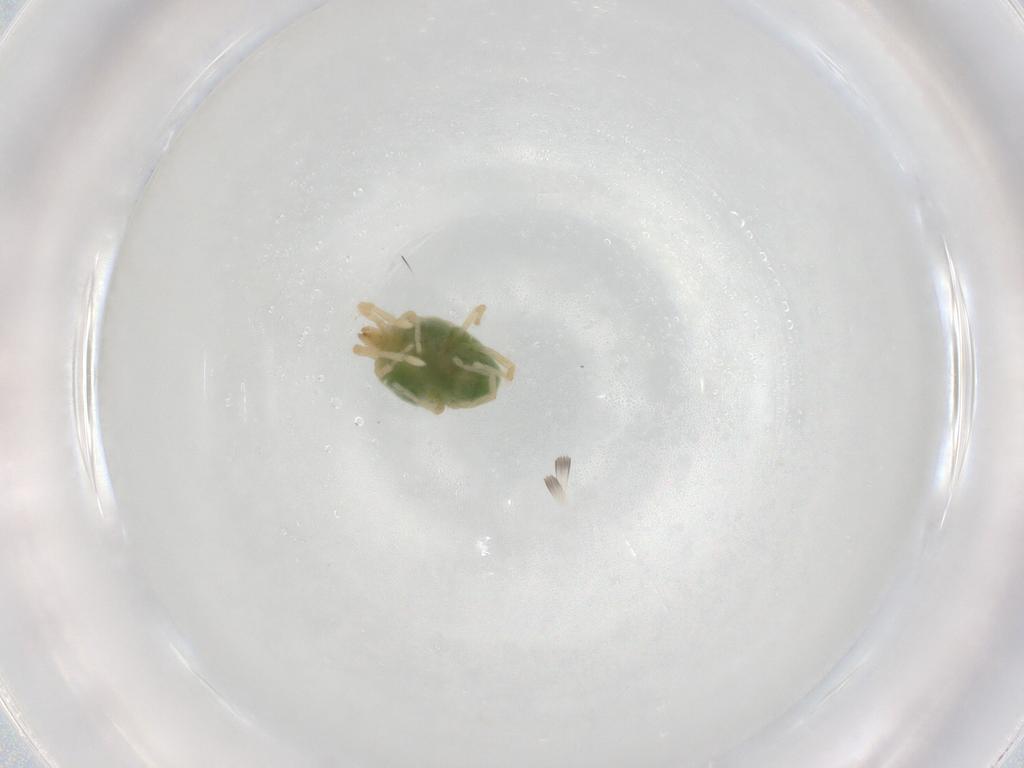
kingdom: Animalia
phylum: Arthropoda
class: Arachnida
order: Trombidiformes
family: Erythraeidae
